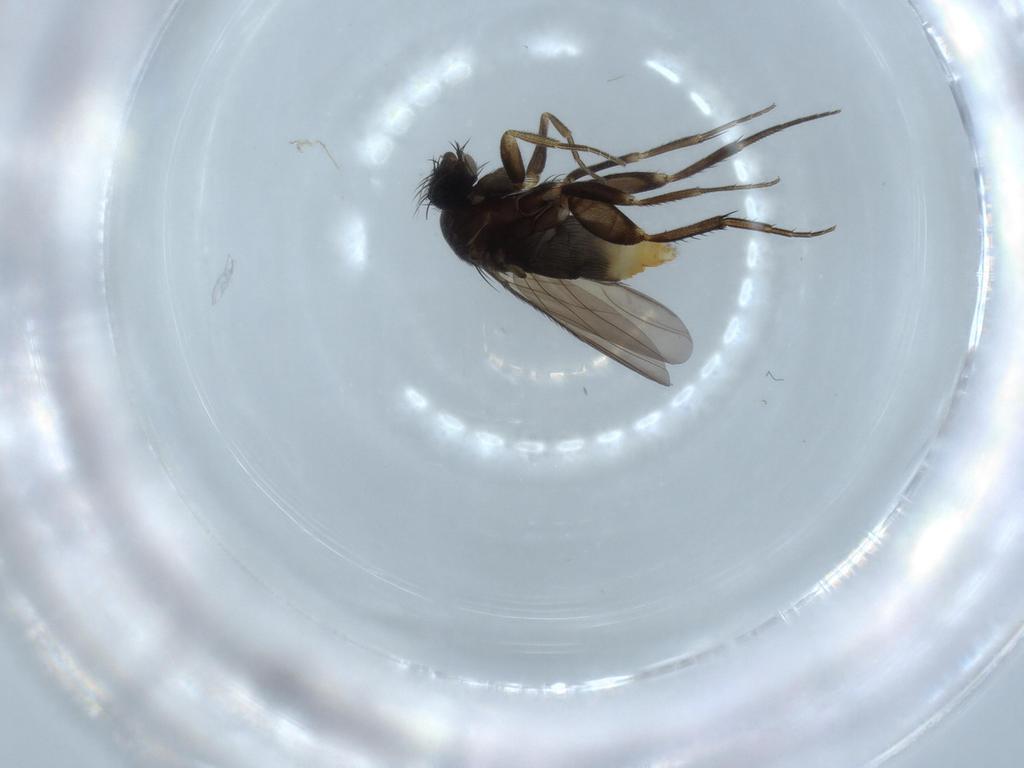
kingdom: Animalia
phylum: Arthropoda
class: Insecta
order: Diptera
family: Phoridae
